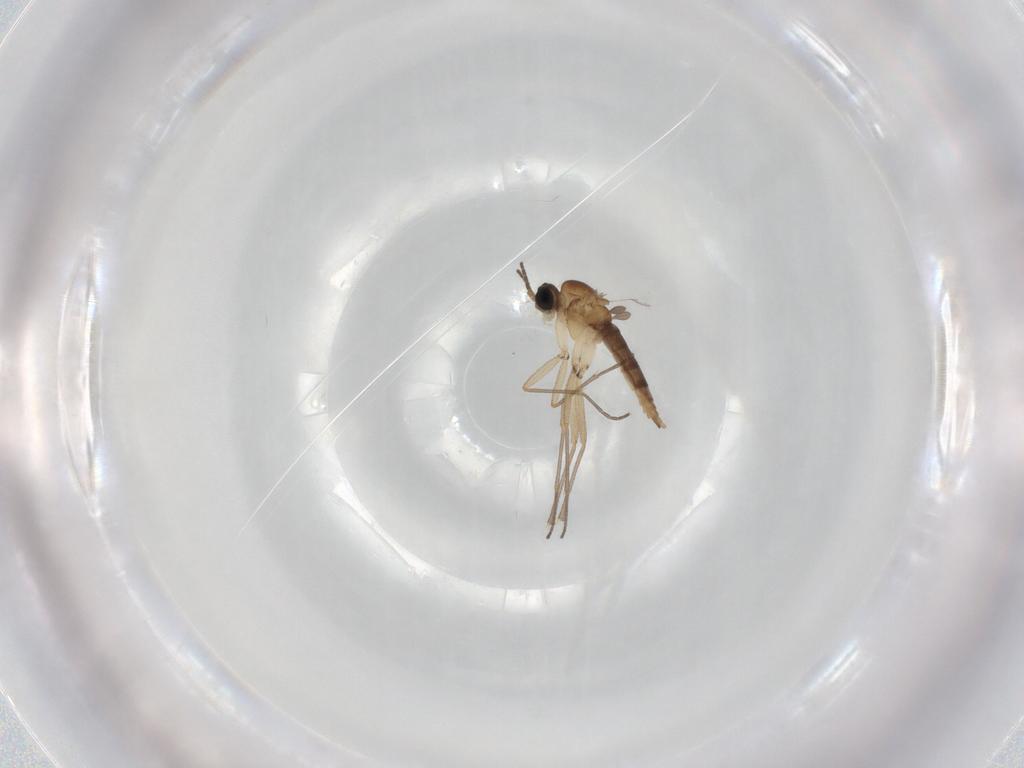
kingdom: Animalia
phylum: Arthropoda
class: Insecta
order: Diptera
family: Sciaridae
